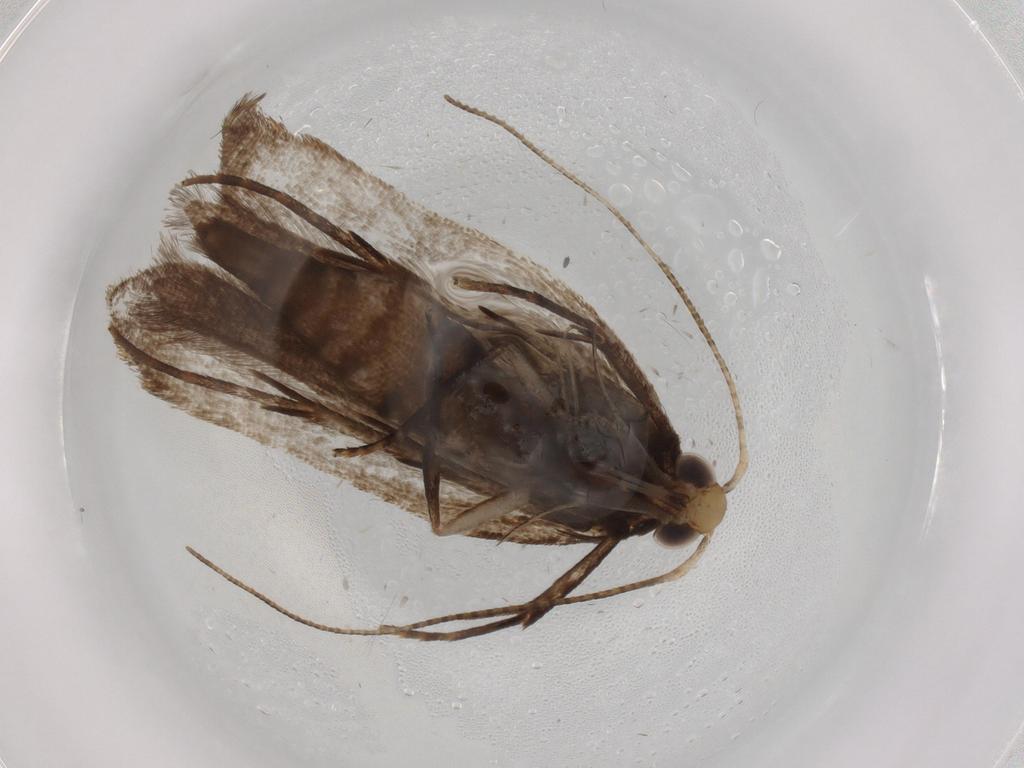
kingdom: Animalia
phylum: Arthropoda
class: Insecta
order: Lepidoptera
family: Gelechiidae
